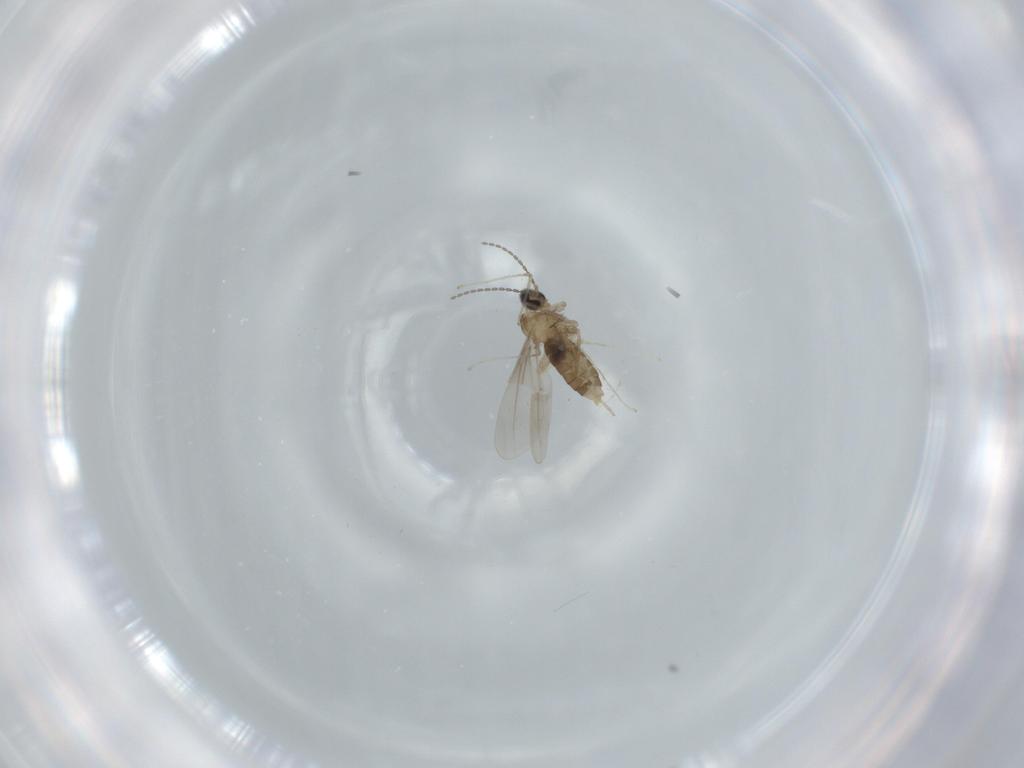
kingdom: Animalia
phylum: Arthropoda
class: Insecta
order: Diptera
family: Cecidomyiidae
